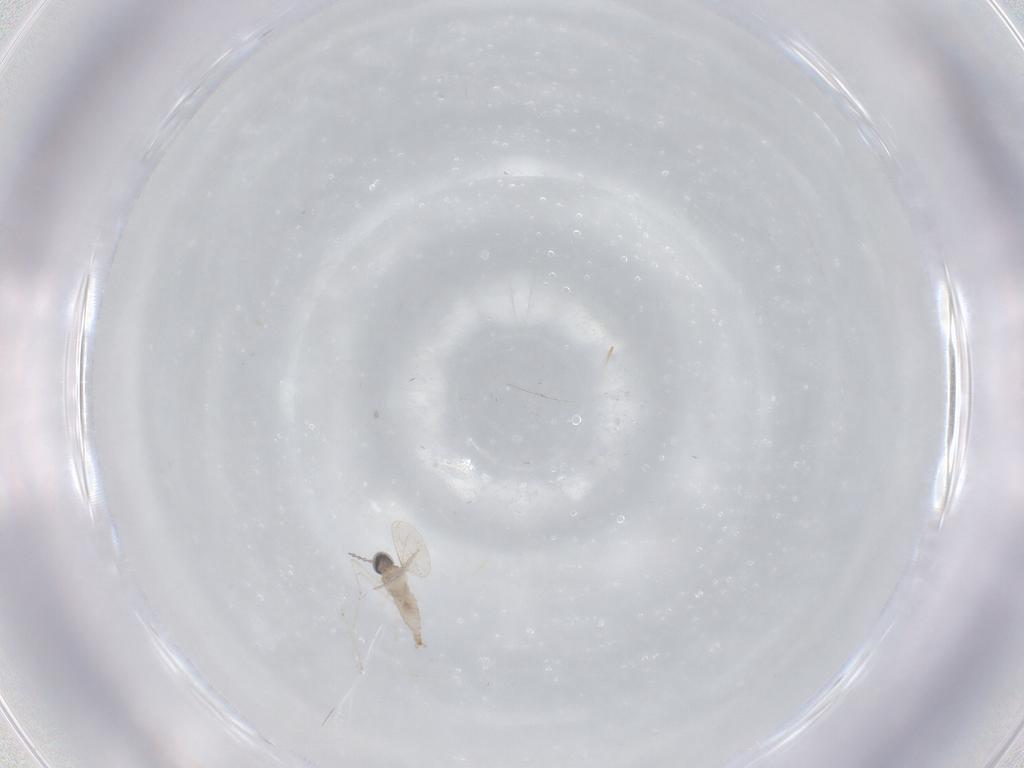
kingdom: Animalia
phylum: Arthropoda
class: Insecta
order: Diptera
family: Cecidomyiidae
